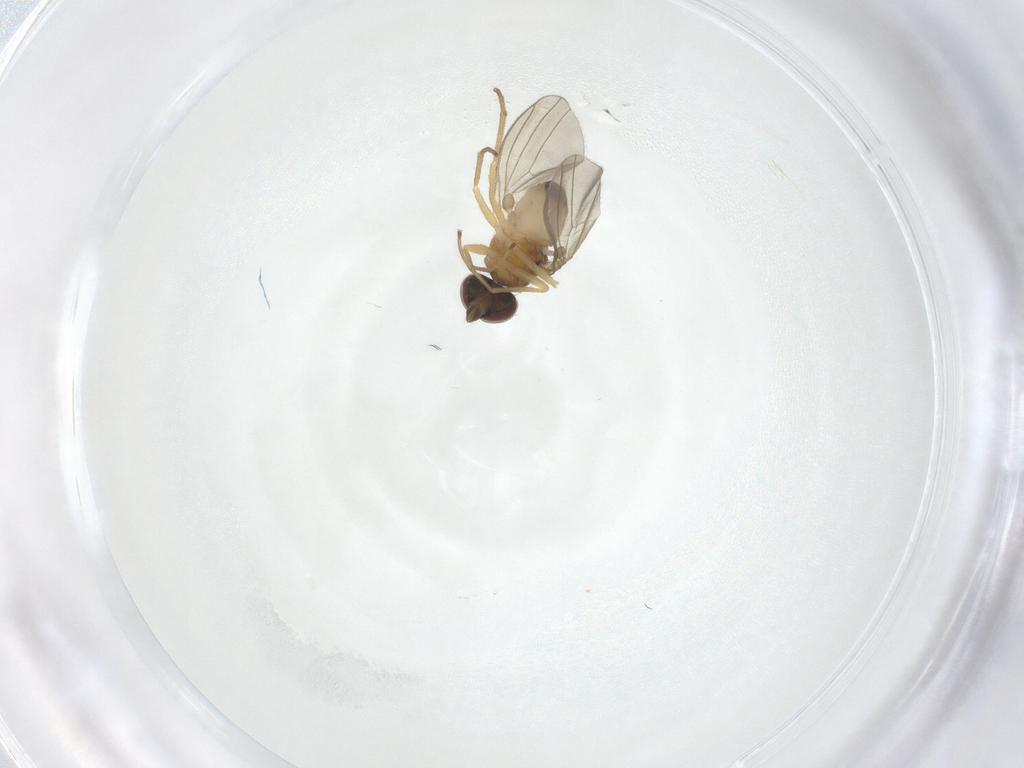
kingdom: Animalia
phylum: Arthropoda
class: Insecta
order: Diptera
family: Dolichopodidae
